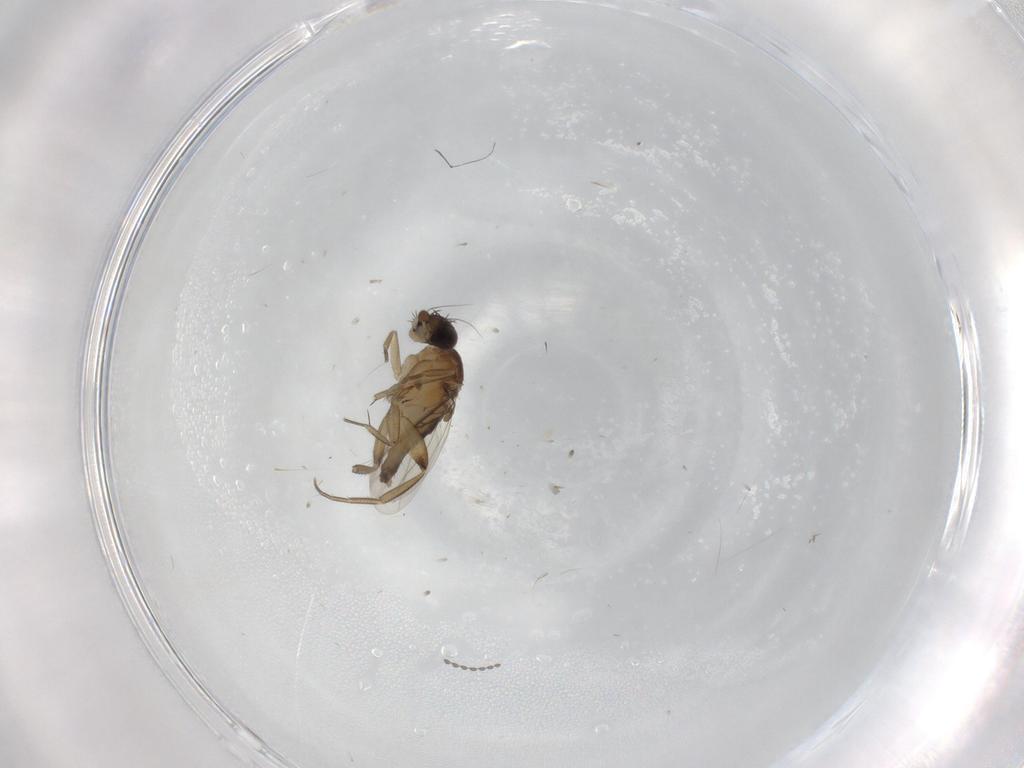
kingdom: Animalia
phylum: Arthropoda
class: Insecta
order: Diptera
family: Phoridae
